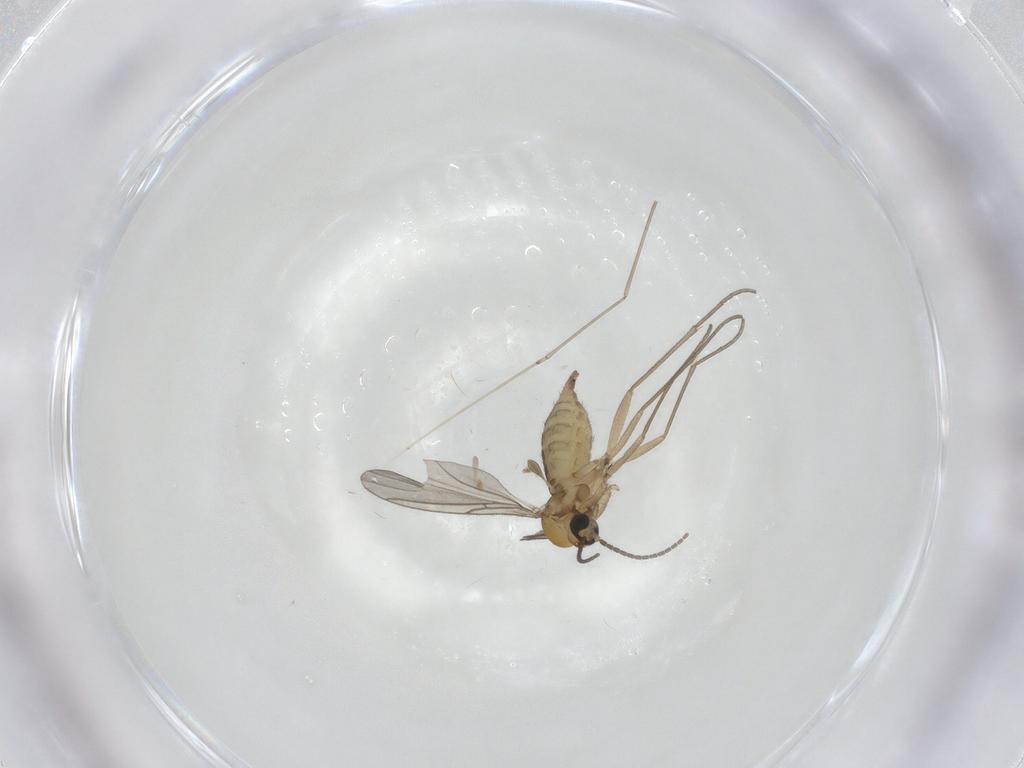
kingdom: Animalia
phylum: Arthropoda
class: Insecta
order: Diptera
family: Sciaridae
